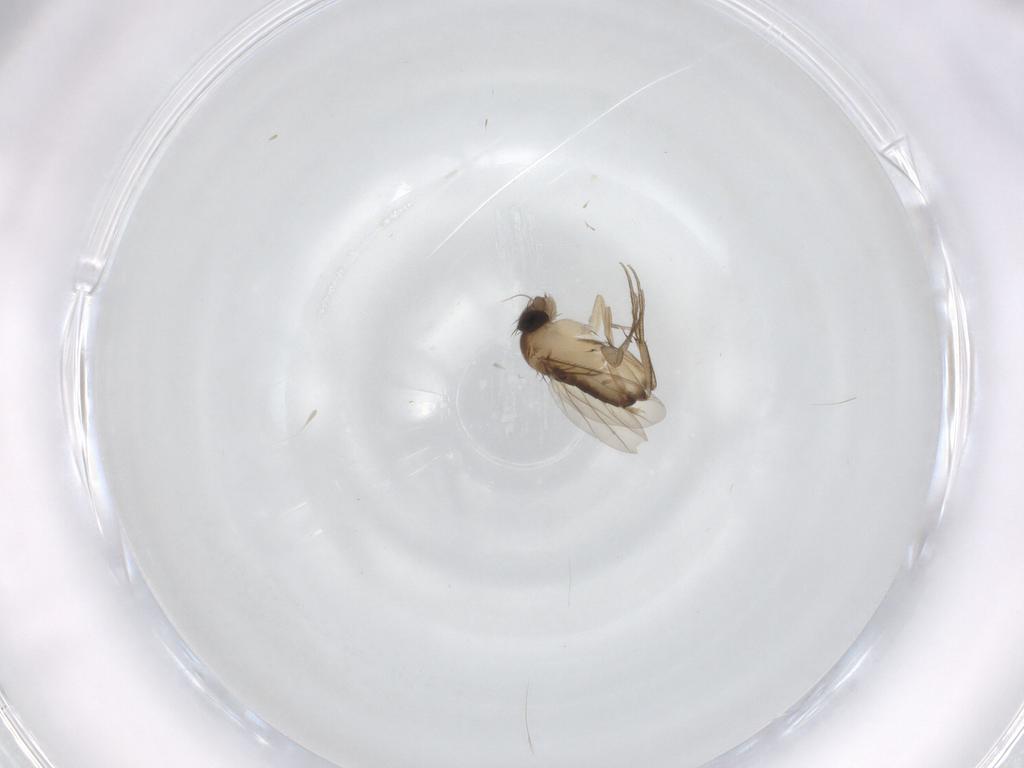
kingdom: Animalia
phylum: Arthropoda
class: Insecta
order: Diptera
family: Phoridae
